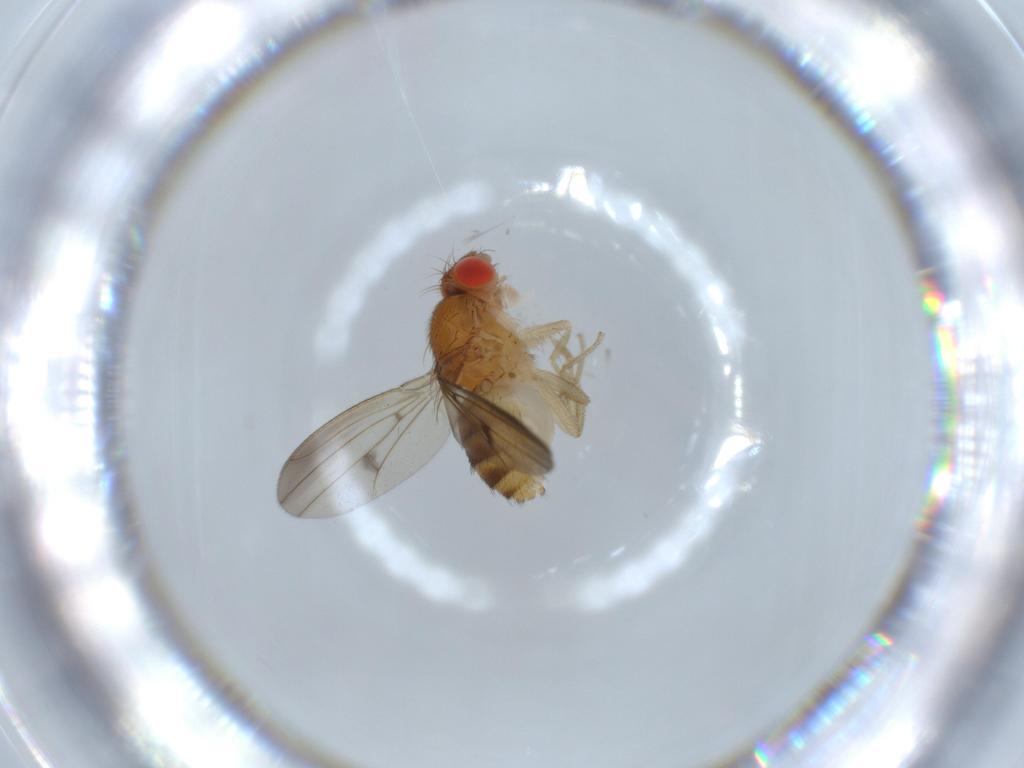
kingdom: Animalia
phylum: Arthropoda
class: Insecta
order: Diptera
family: Drosophilidae
